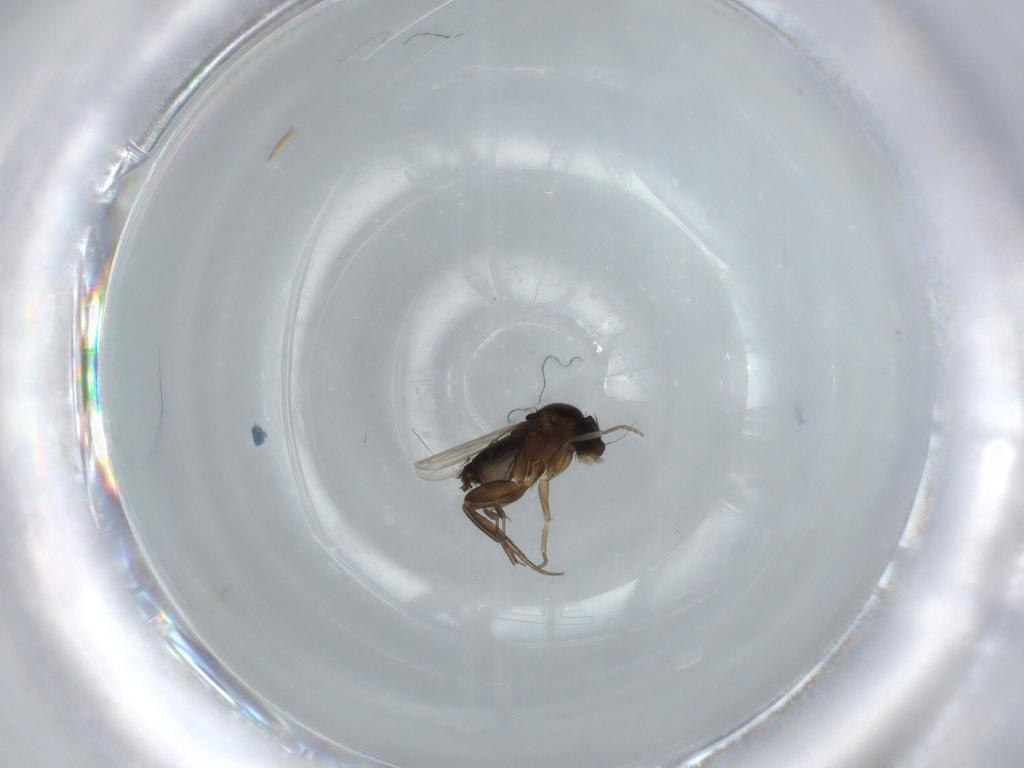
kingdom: Animalia
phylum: Arthropoda
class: Insecta
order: Diptera
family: Phoridae
